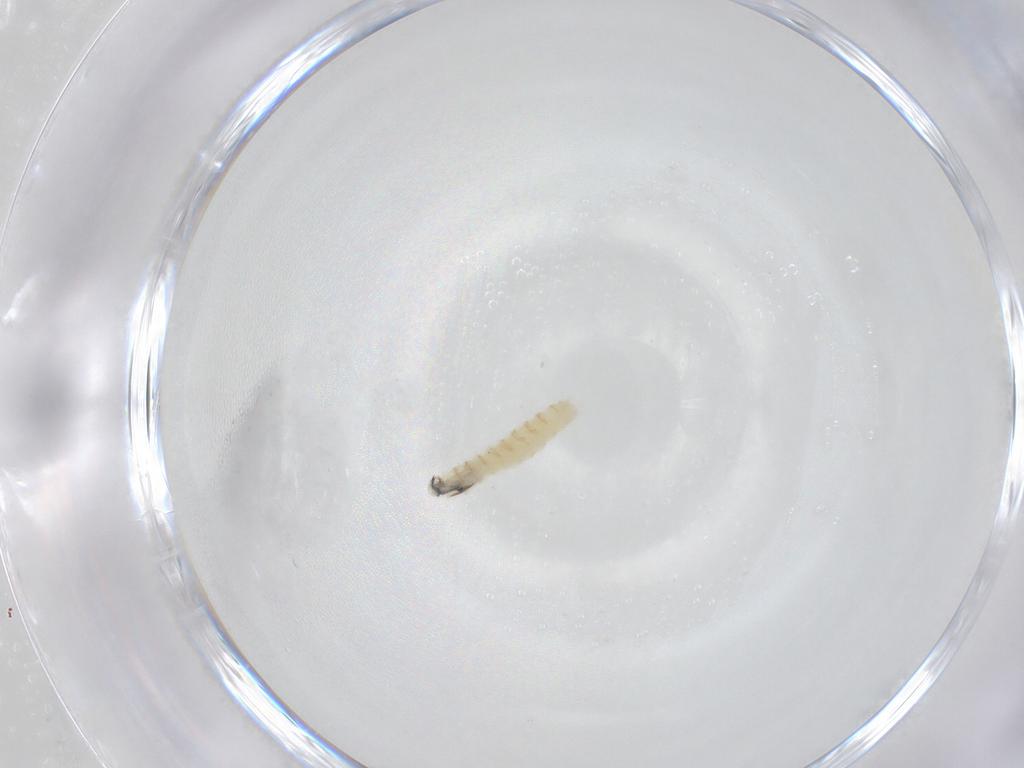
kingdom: Animalia
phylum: Arthropoda
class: Insecta
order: Diptera
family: Sarcophagidae
